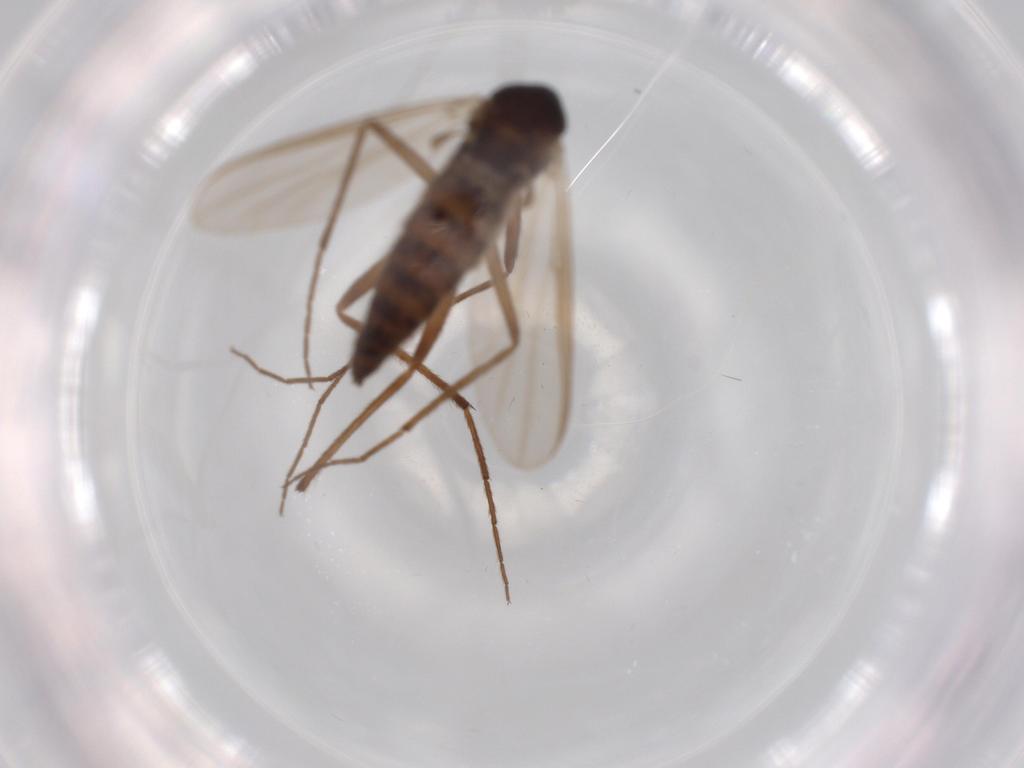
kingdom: Animalia
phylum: Arthropoda
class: Insecta
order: Diptera
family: Chironomidae
